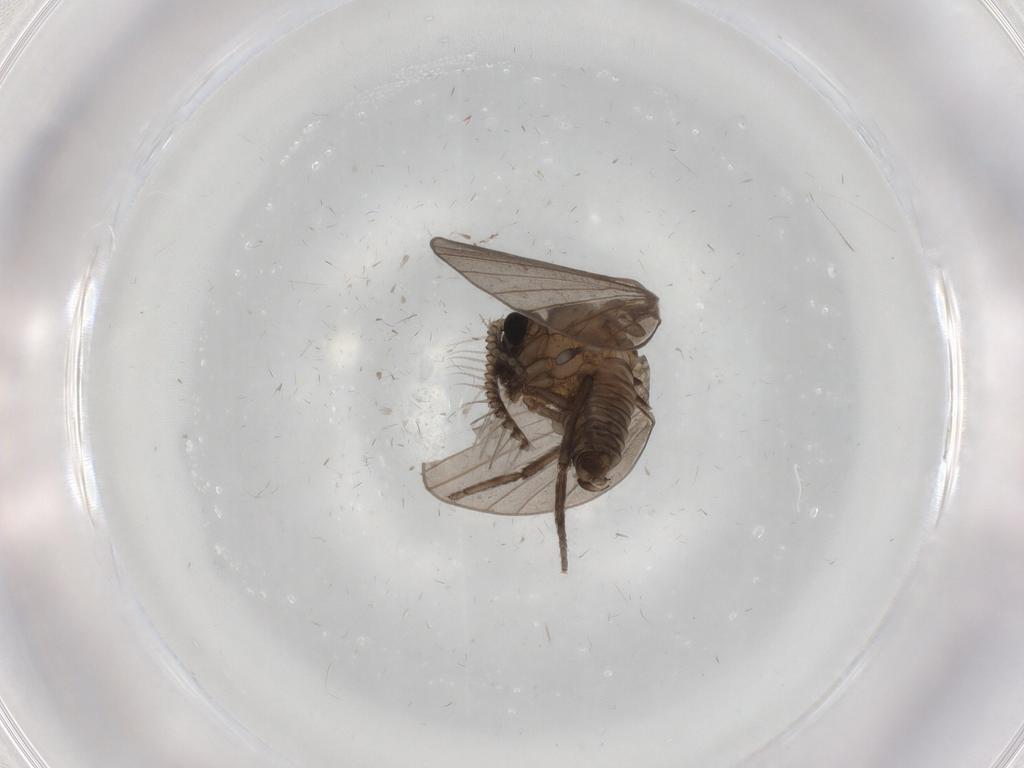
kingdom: Animalia
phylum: Arthropoda
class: Insecta
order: Diptera
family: Psychodidae
